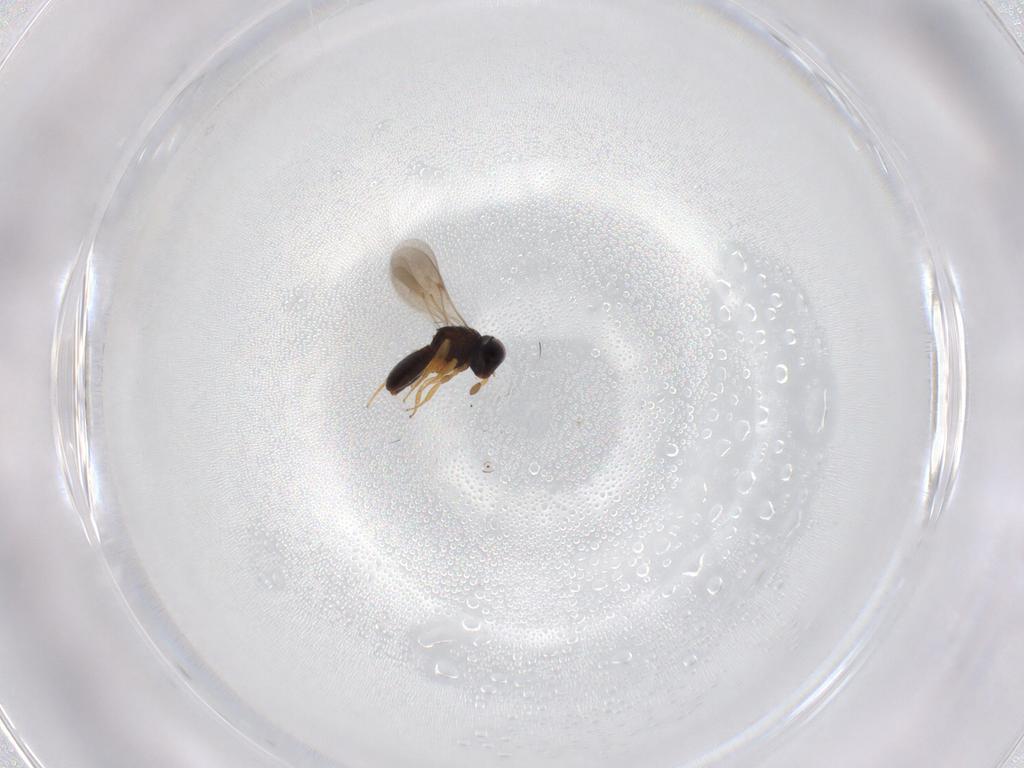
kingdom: Animalia
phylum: Arthropoda
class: Insecta
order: Hymenoptera
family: Scelionidae
